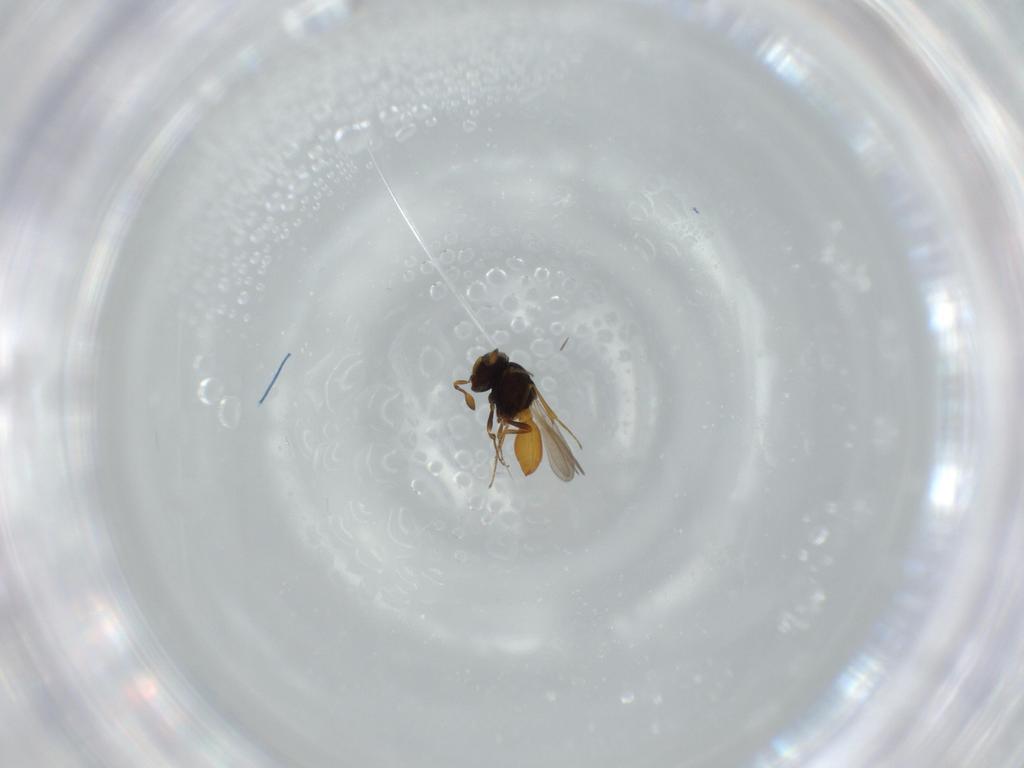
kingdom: Animalia
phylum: Arthropoda
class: Insecta
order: Hymenoptera
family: Scelionidae
